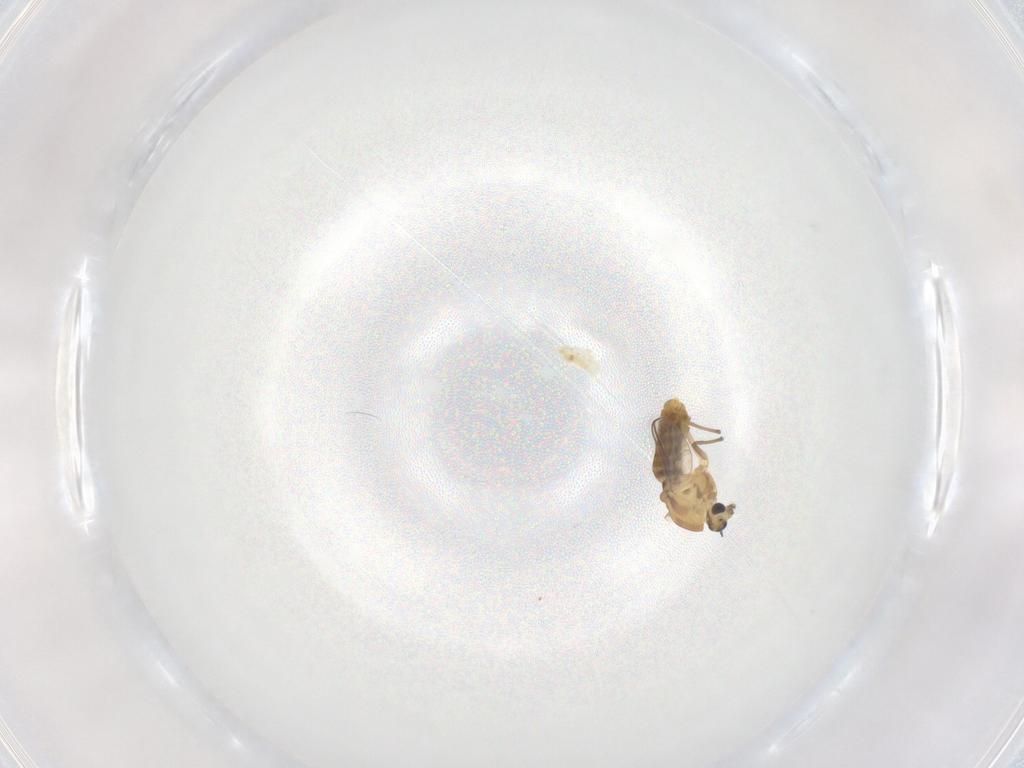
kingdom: Animalia
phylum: Arthropoda
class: Insecta
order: Diptera
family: Chironomidae
